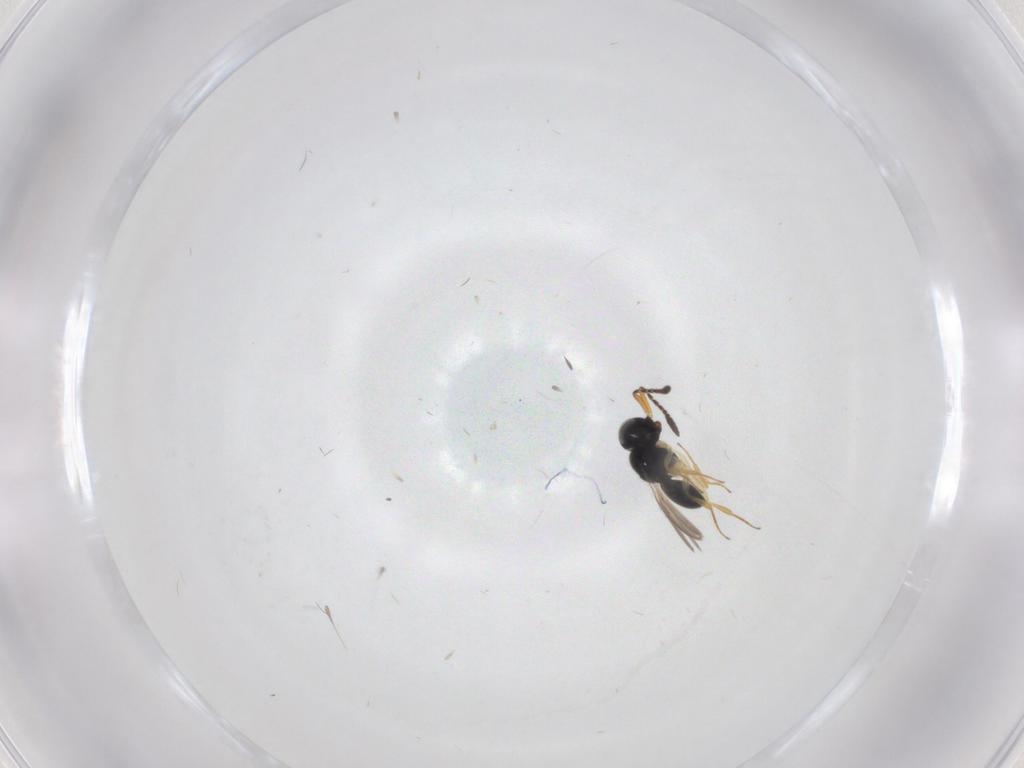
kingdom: Animalia
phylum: Arthropoda
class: Insecta
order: Hymenoptera
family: Scelionidae
